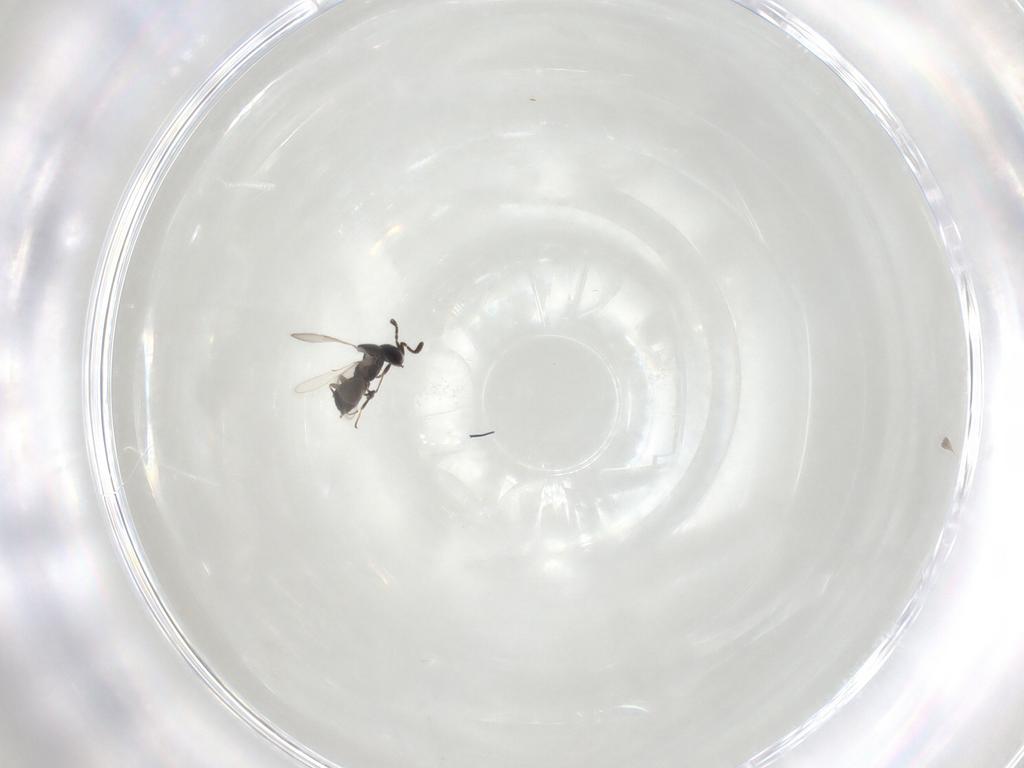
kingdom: Animalia
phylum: Arthropoda
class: Insecta
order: Hymenoptera
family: Scelionidae
